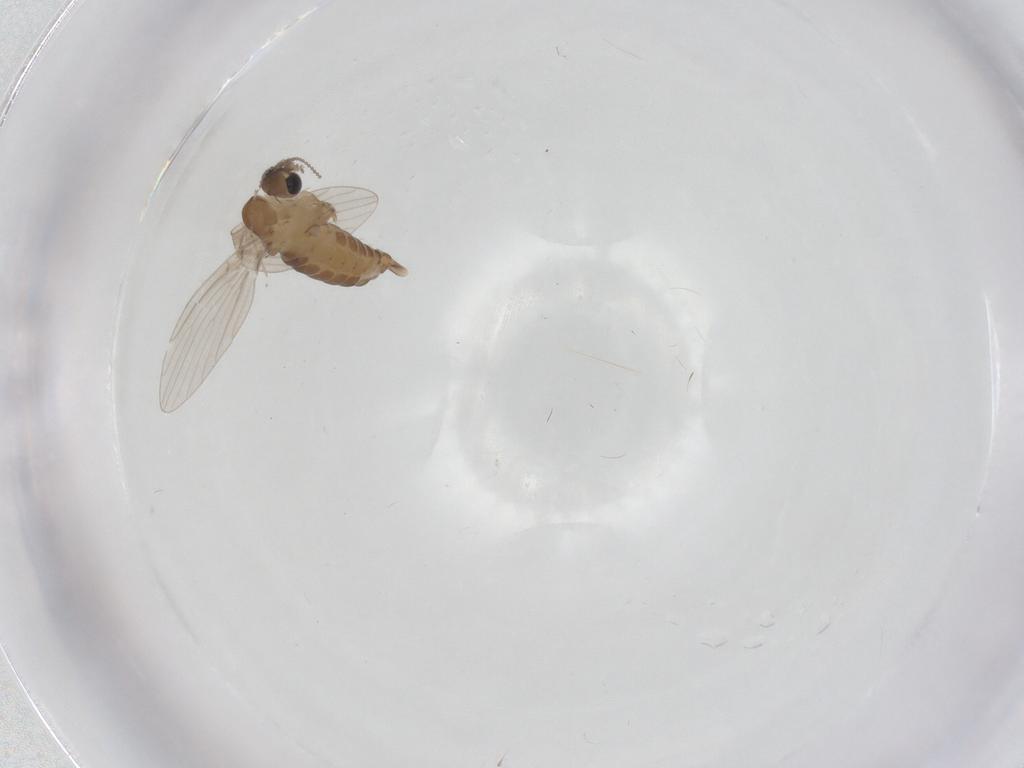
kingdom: Animalia
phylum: Arthropoda
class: Insecta
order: Diptera
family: Cecidomyiidae
